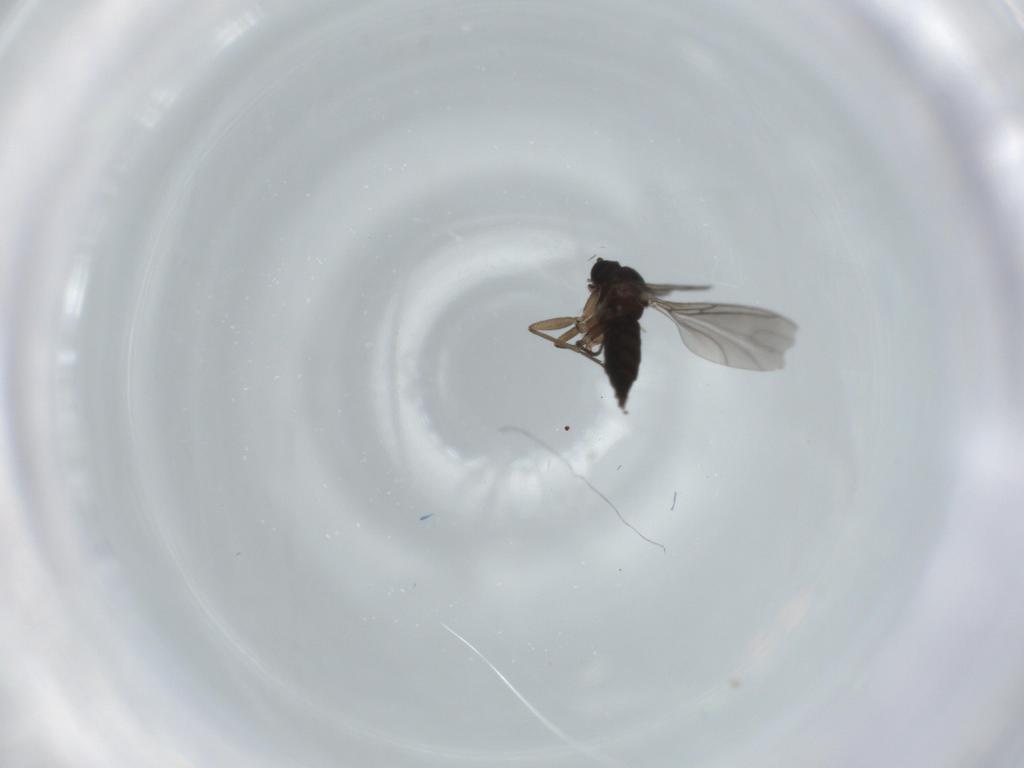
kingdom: Animalia
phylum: Arthropoda
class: Insecta
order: Diptera
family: Sciaridae
